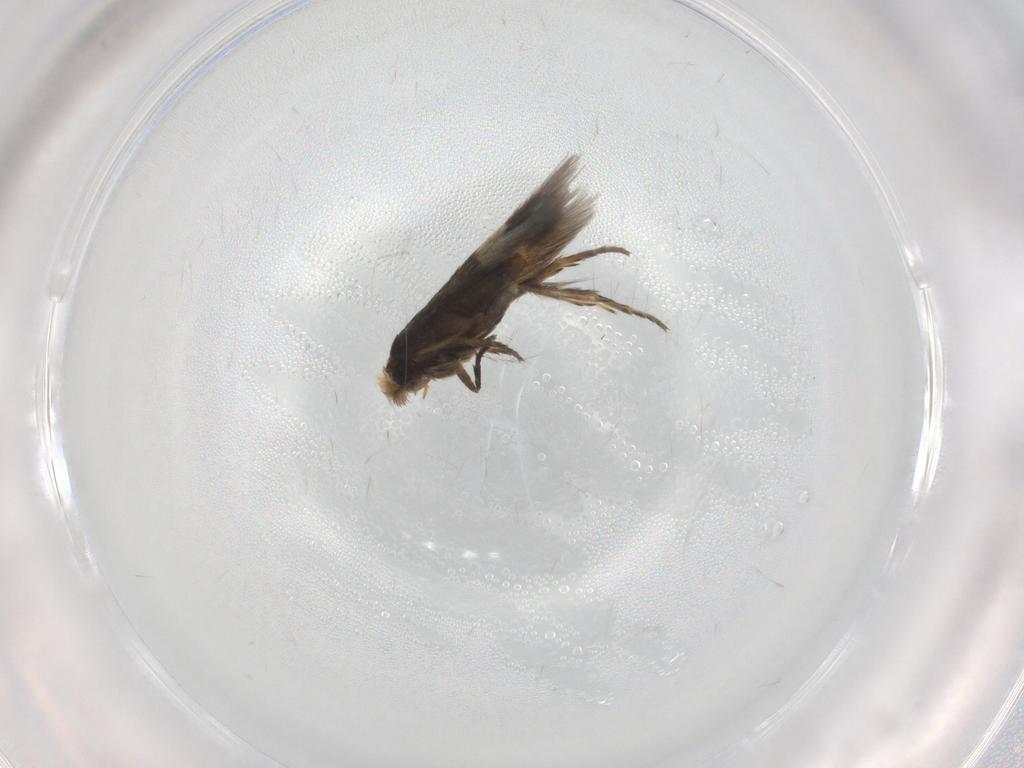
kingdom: Animalia
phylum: Arthropoda
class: Insecta
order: Lepidoptera
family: Nepticulidae
